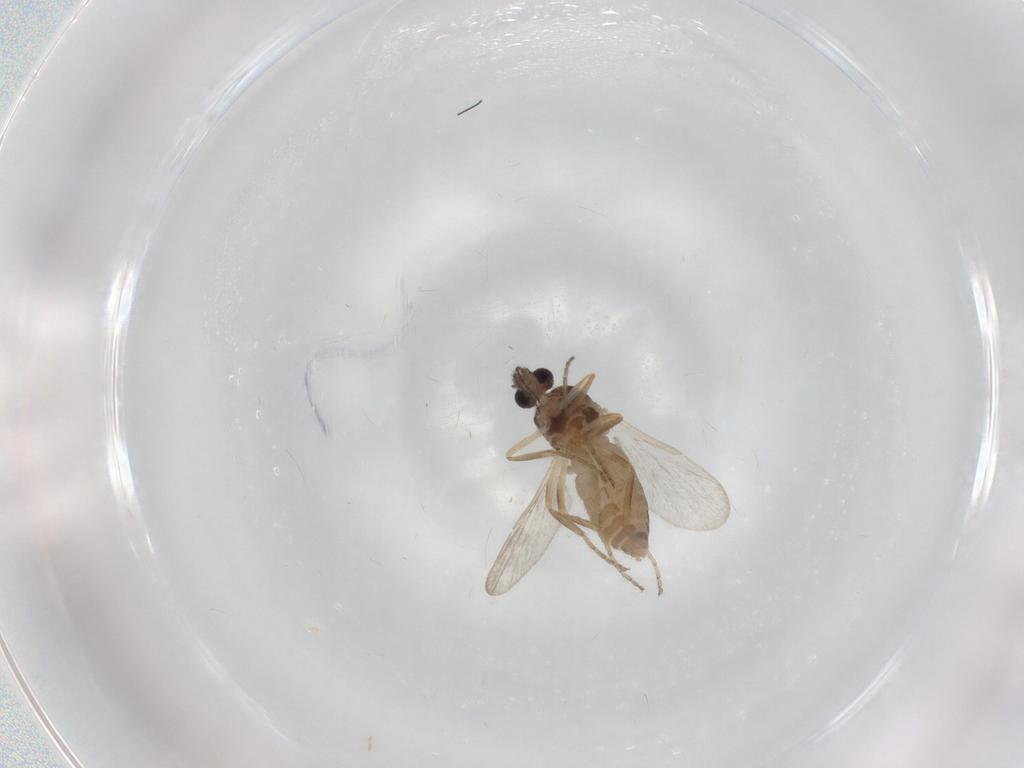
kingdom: Animalia
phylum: Arthropoda
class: Insecta
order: Diptera
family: Ceratopogonidae
